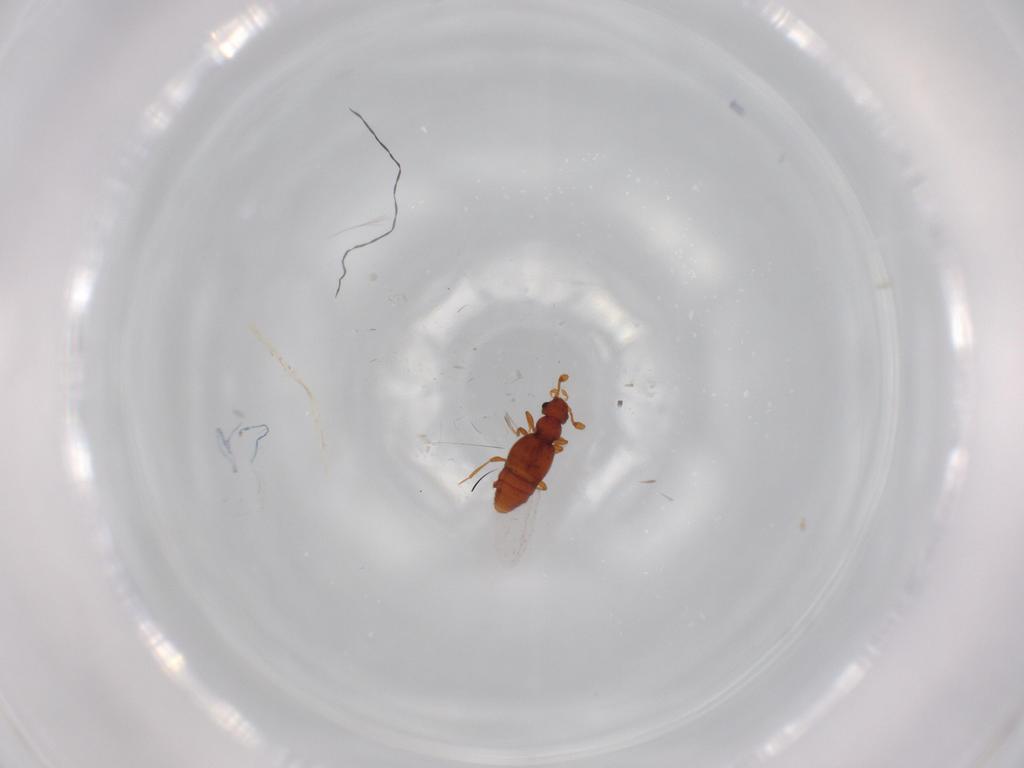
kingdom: Animalia
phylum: Arthropoda
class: Insecta
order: Coleoptera
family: Staphylinidae
